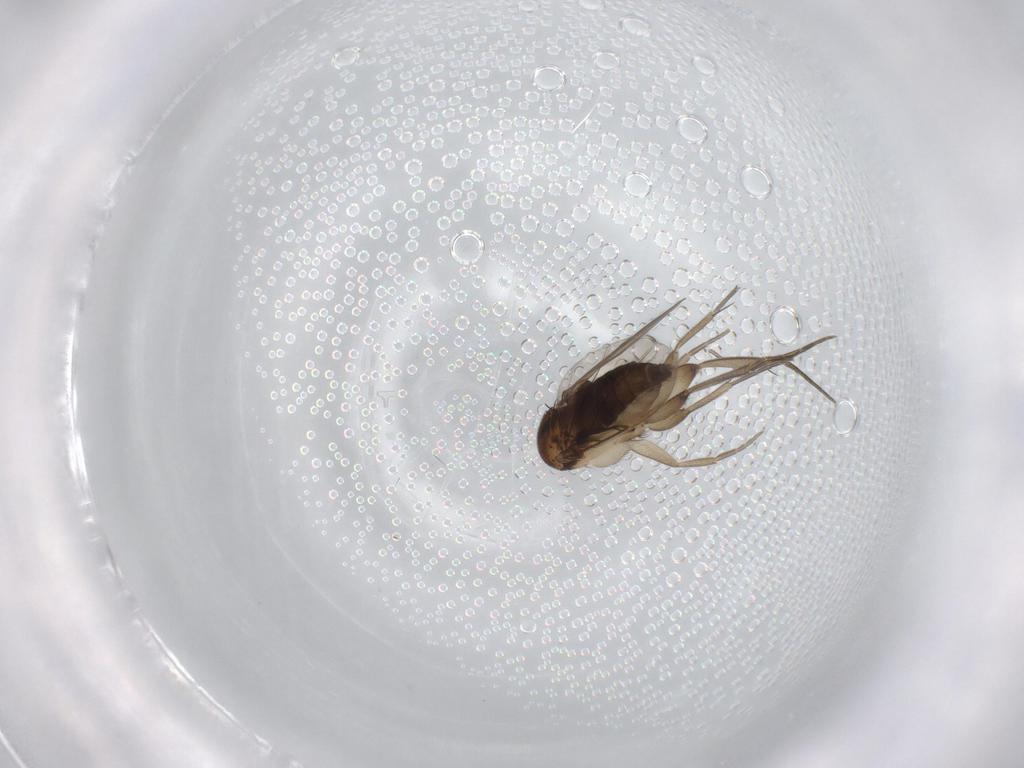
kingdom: Animalia
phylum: Arthropoda
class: Insecta
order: Diptera
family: Phoridae
